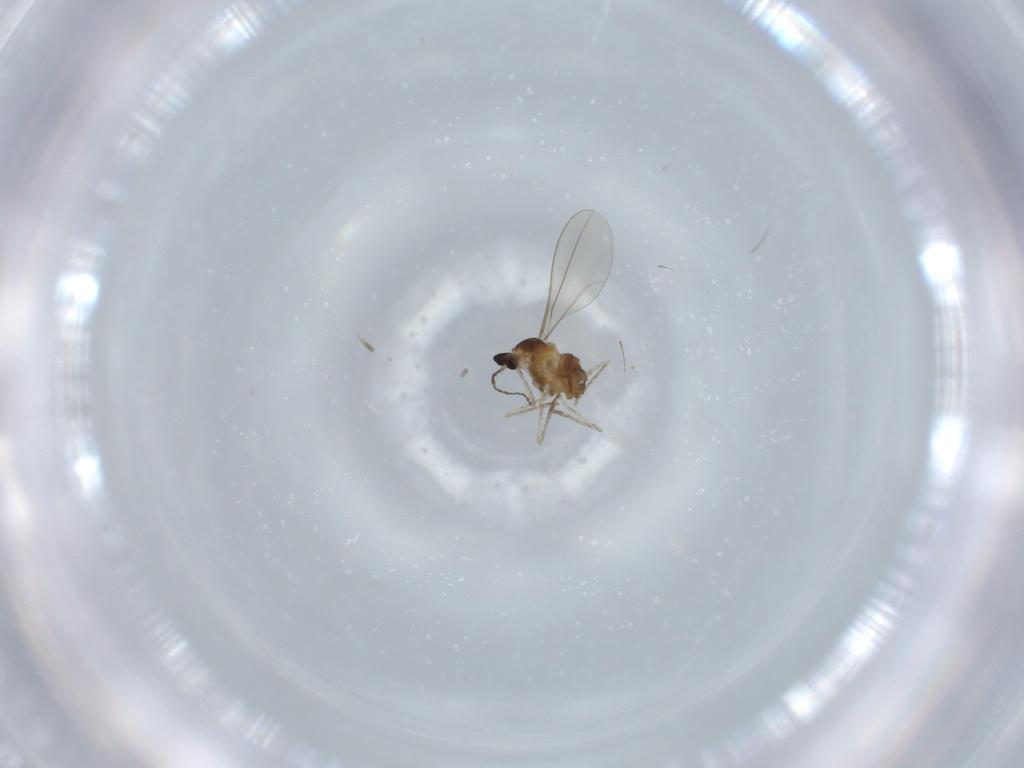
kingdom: Animalia
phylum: Arthropoda
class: Insecta
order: Diptera
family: Cecidomyiidae
